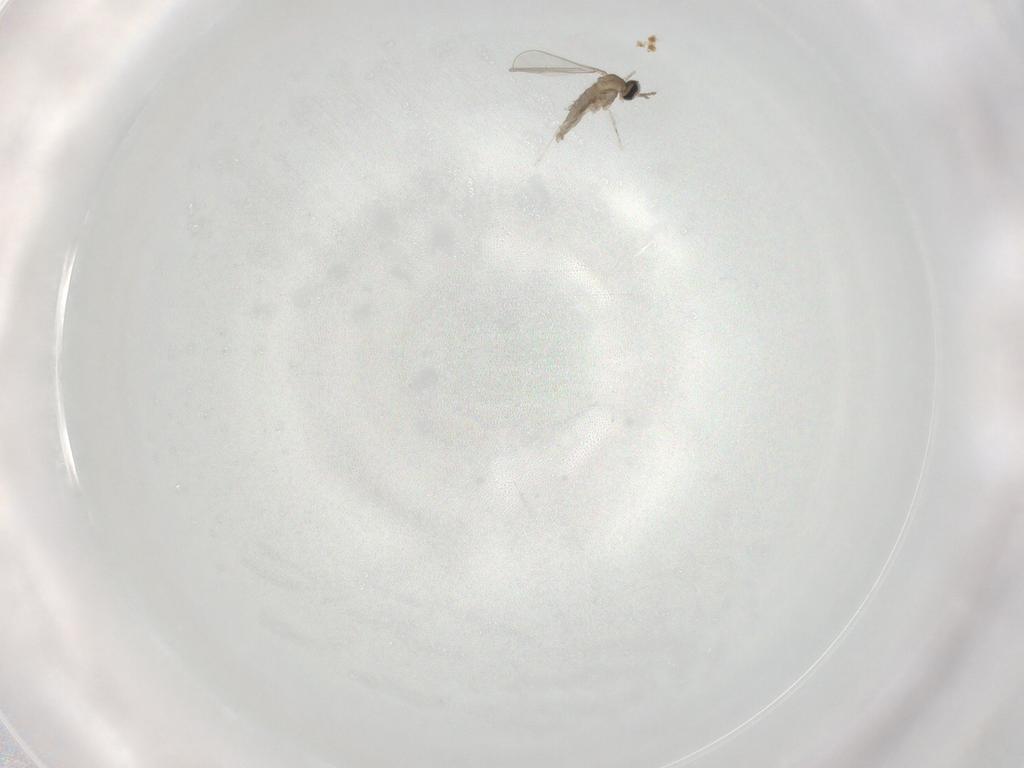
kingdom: Animalia
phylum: Arthropoda
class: Insecta
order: Diptera
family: Cecidomyiidae
